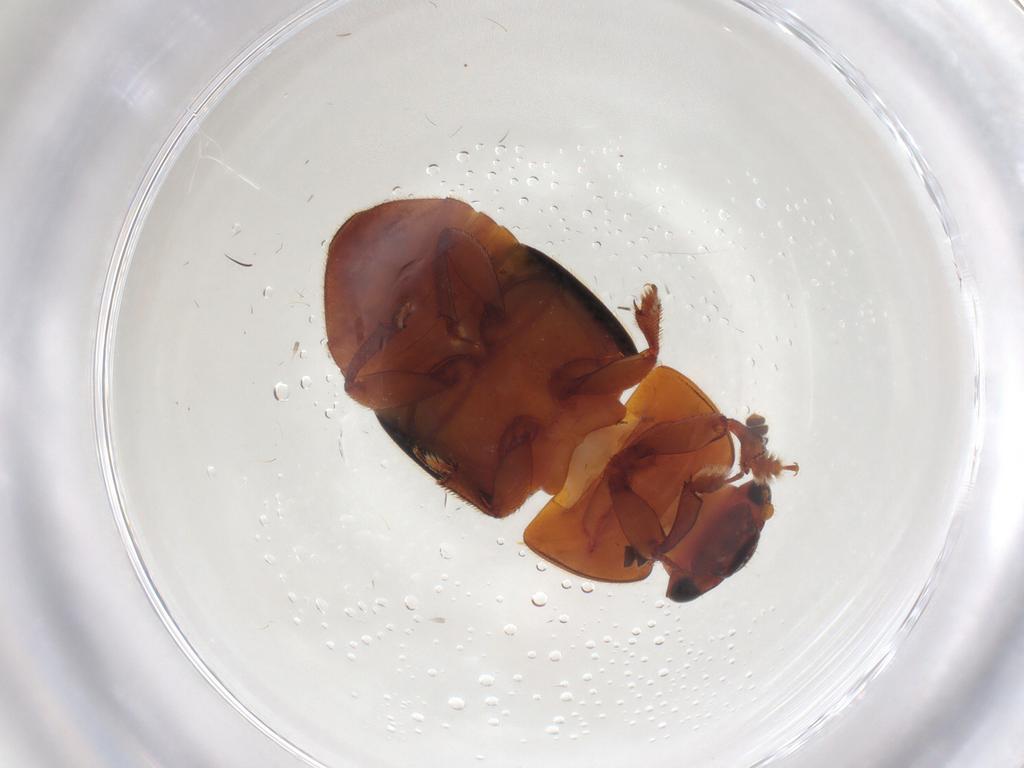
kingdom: Animalia
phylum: Arthropoda
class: Insecta
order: Coleoptera
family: Nitidulidae
